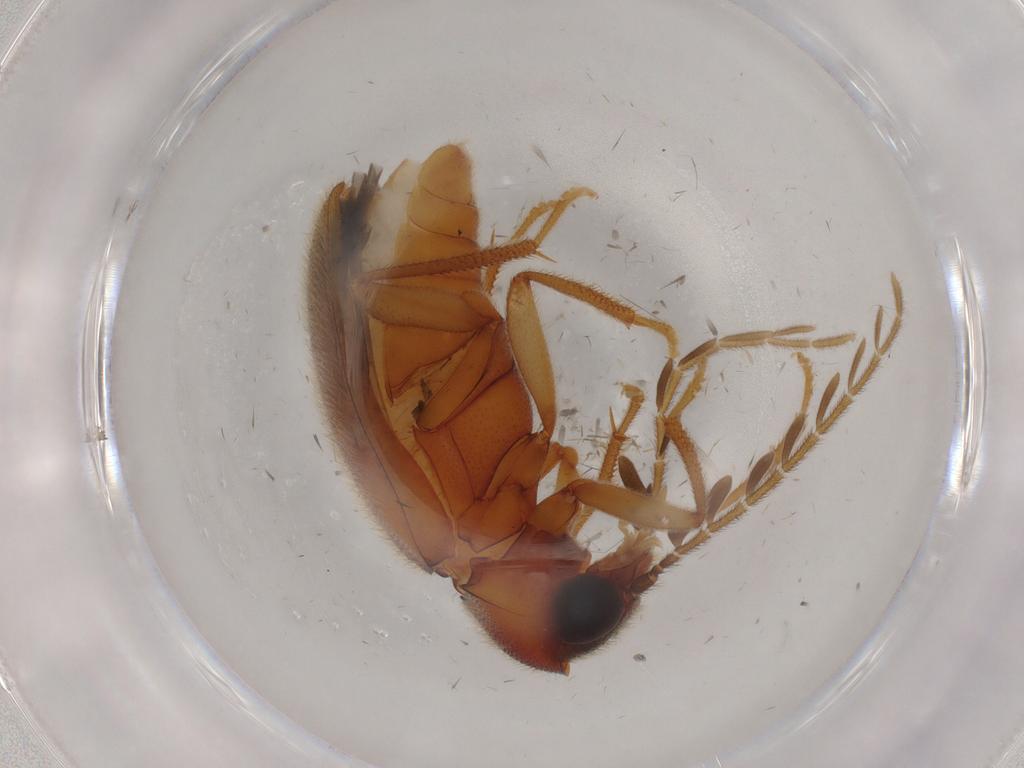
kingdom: Animalia
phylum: Arthropoda
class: Insecta
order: Coleoptera
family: Ptilodactylidae
